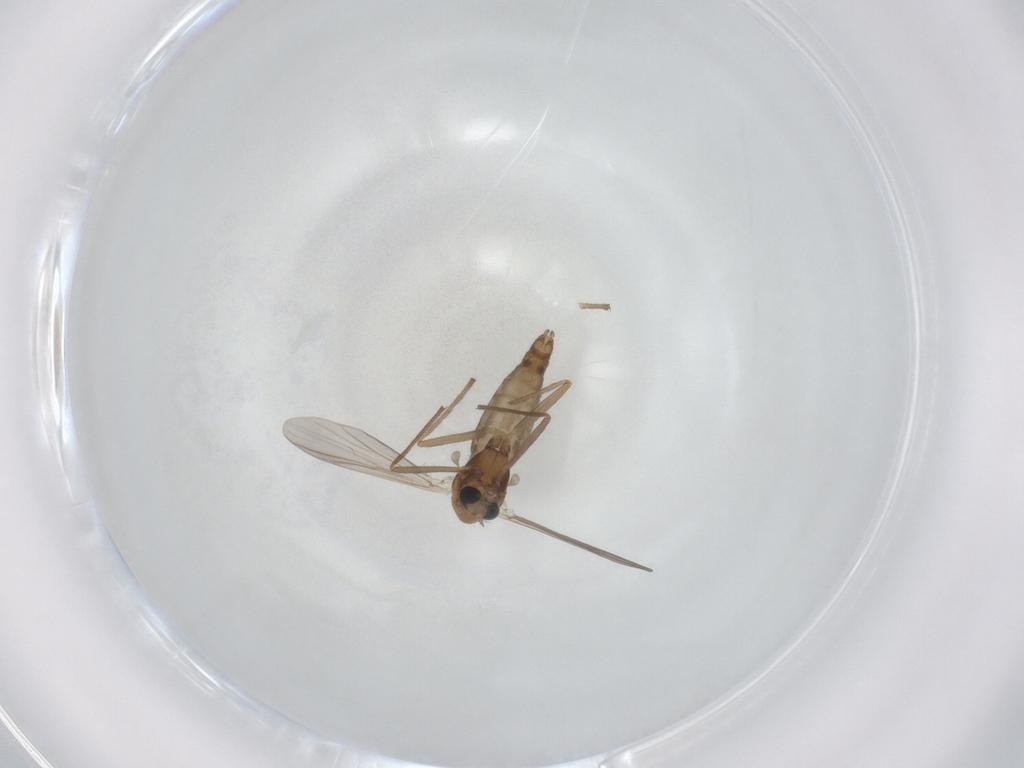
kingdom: Animalia
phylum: Arthropoda
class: Insecta
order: Diptera
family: Chironomidae
